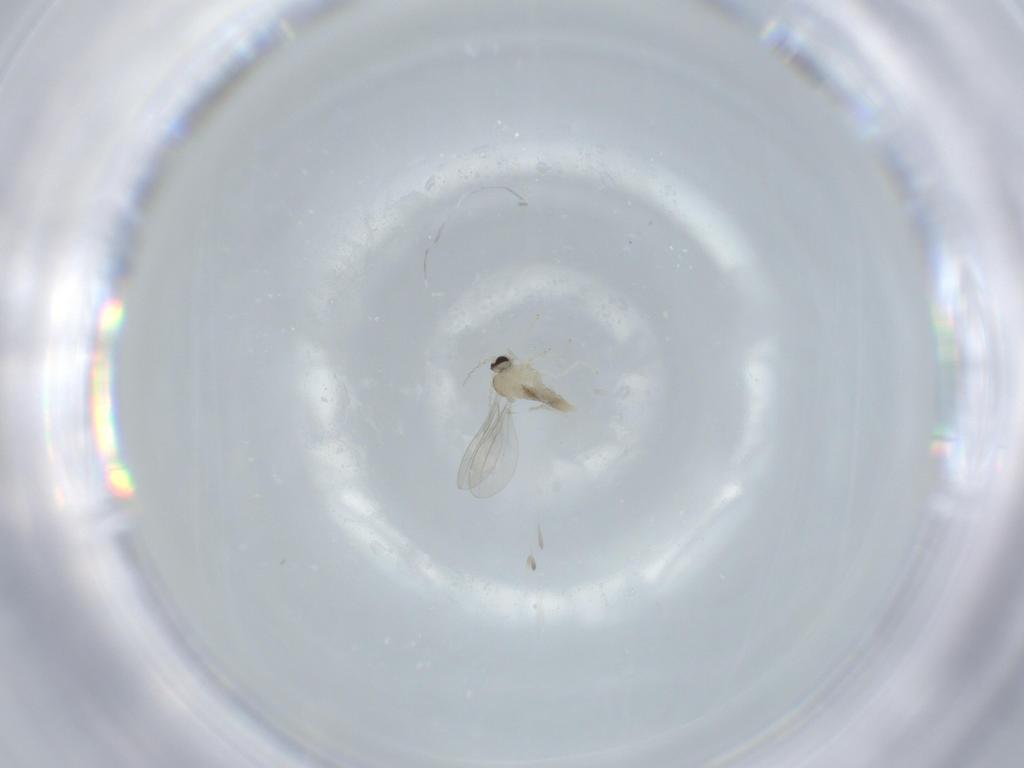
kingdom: Animalia
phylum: Arthropoda
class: Insecta
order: Diptera
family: Cecidomyiidae
